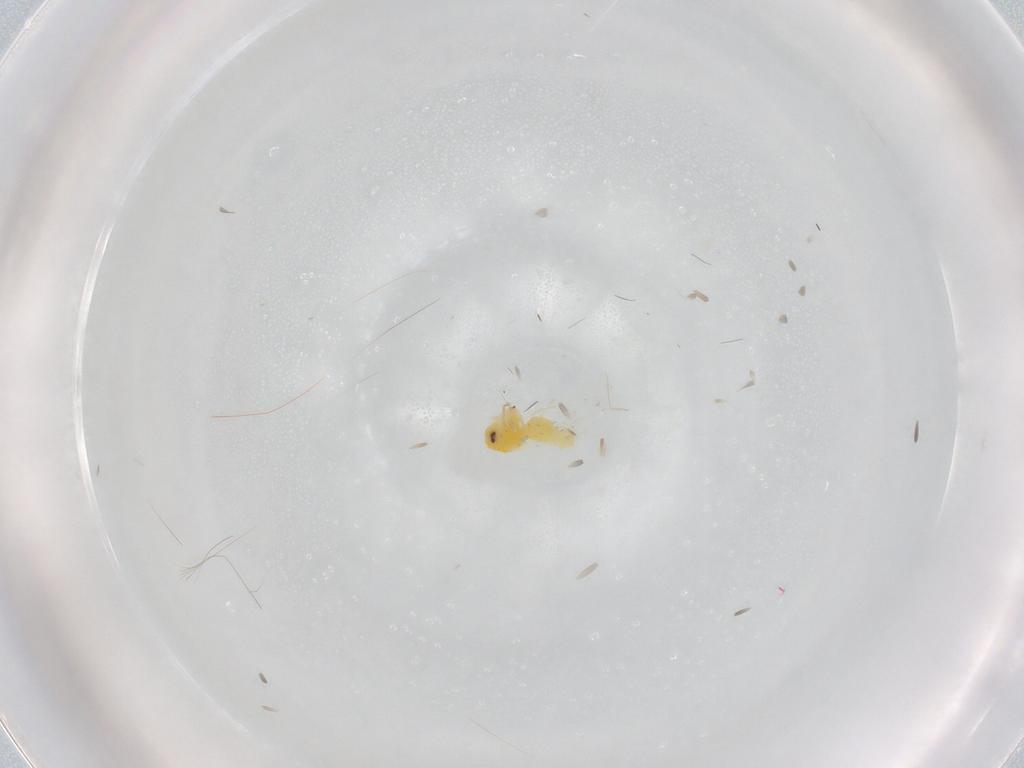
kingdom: Animalia
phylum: Arthropoda
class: Insecta
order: Hemiptera
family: Aleyrodidae
